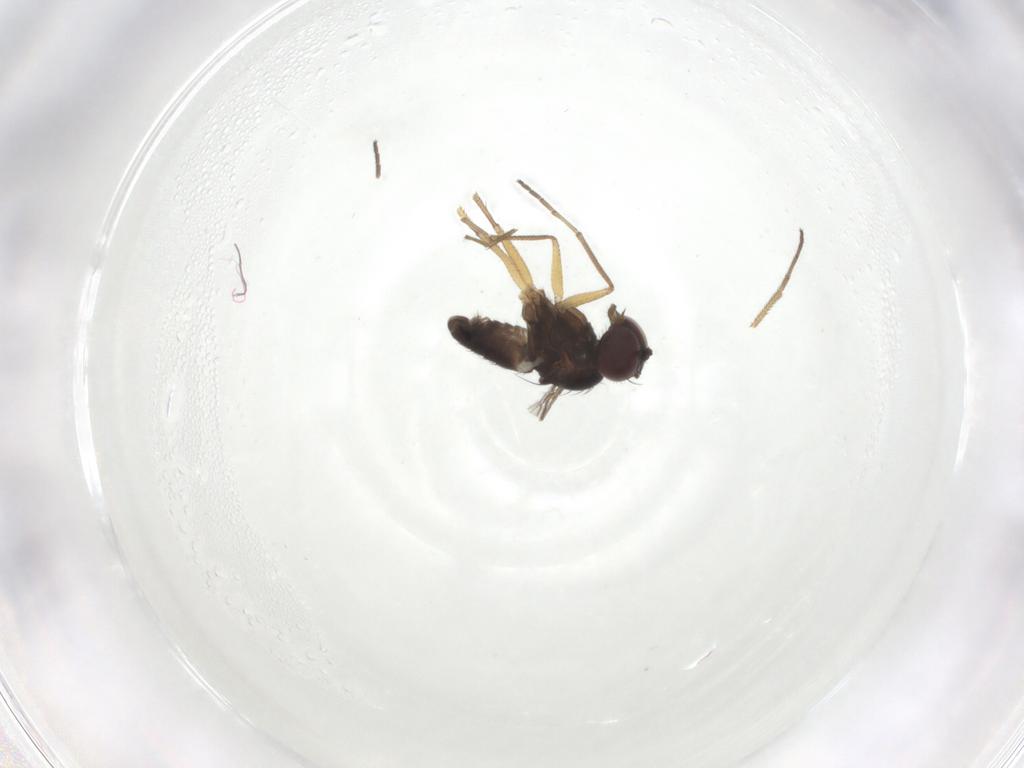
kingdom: Animalia
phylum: Arthropoda
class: Insecta
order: Diptera
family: Dolichopodidae
